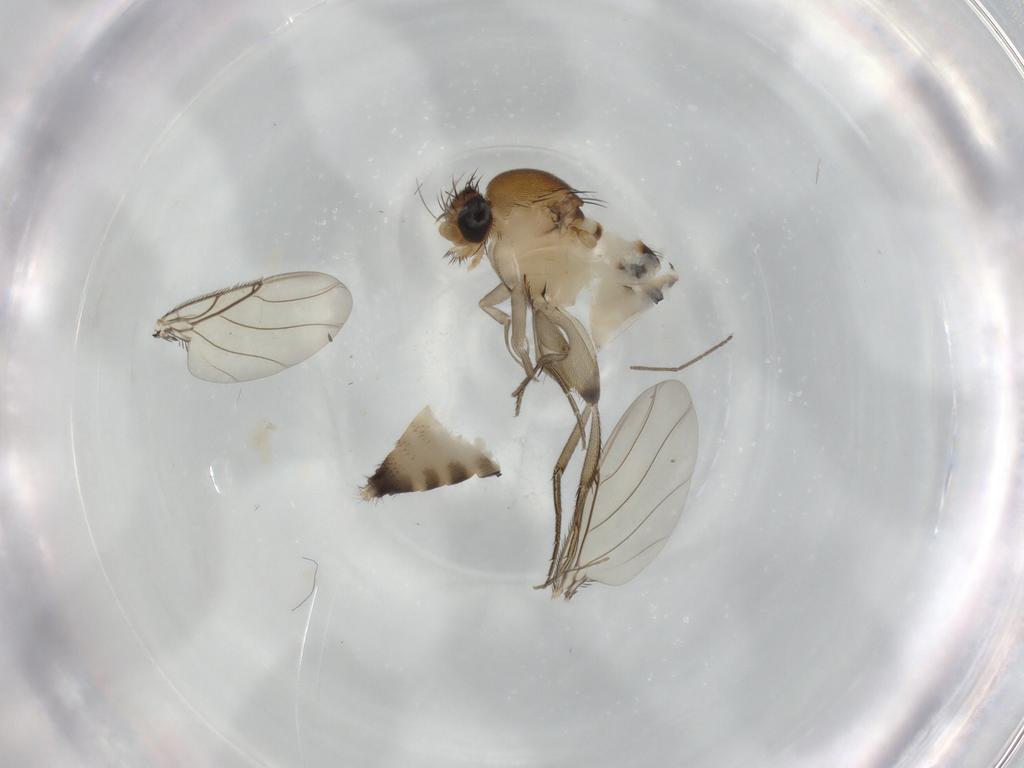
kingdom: Animalia
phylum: Arthropoda
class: Insecta
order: Diptera
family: Phoridae
